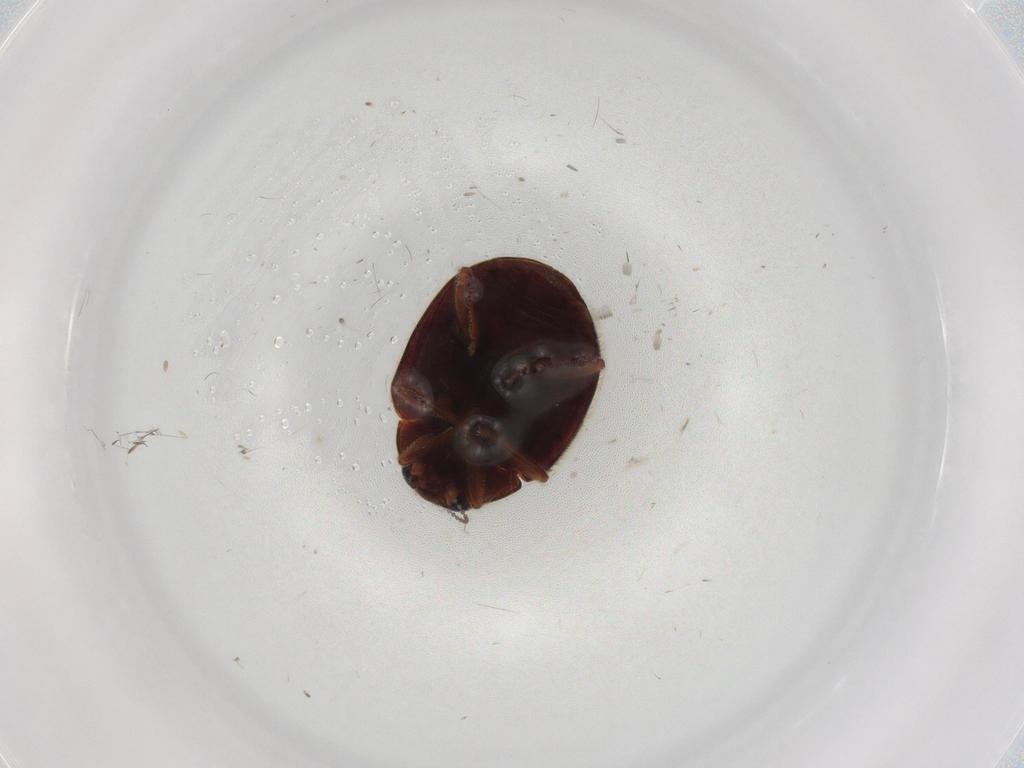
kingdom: Animalia
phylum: Arthropoda
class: Insecta
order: Coleoptera
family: Coccinellidae
